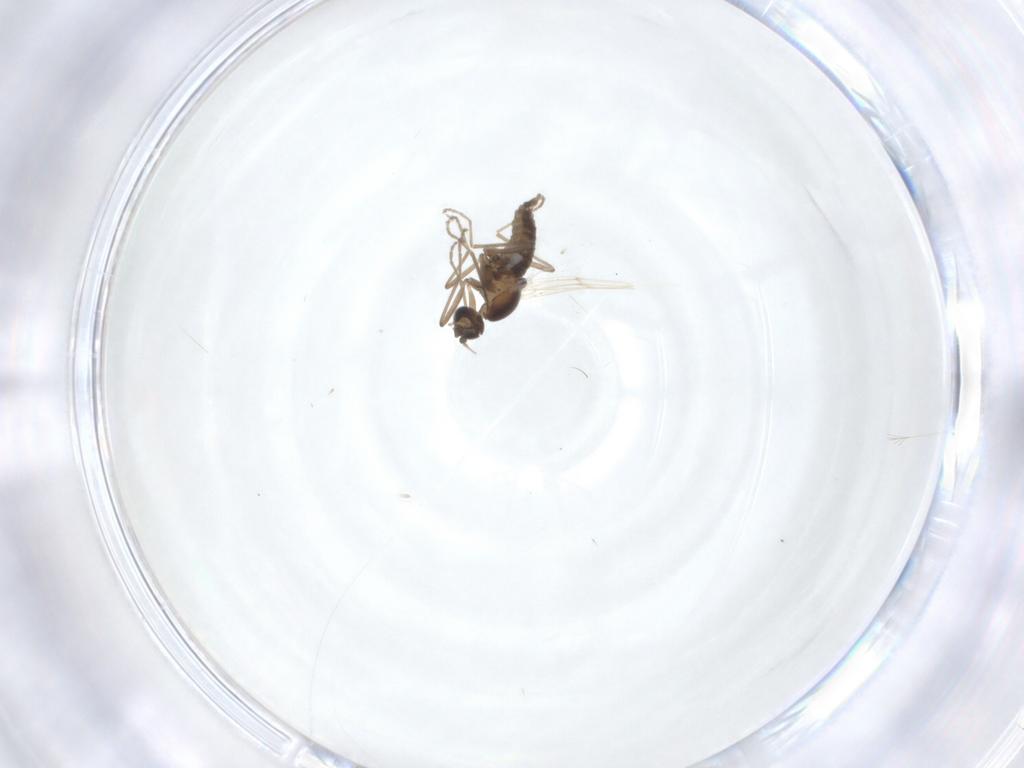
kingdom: Animalia
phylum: Arthropoda
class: Insecta
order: Diptera
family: Cecidomyiidae
